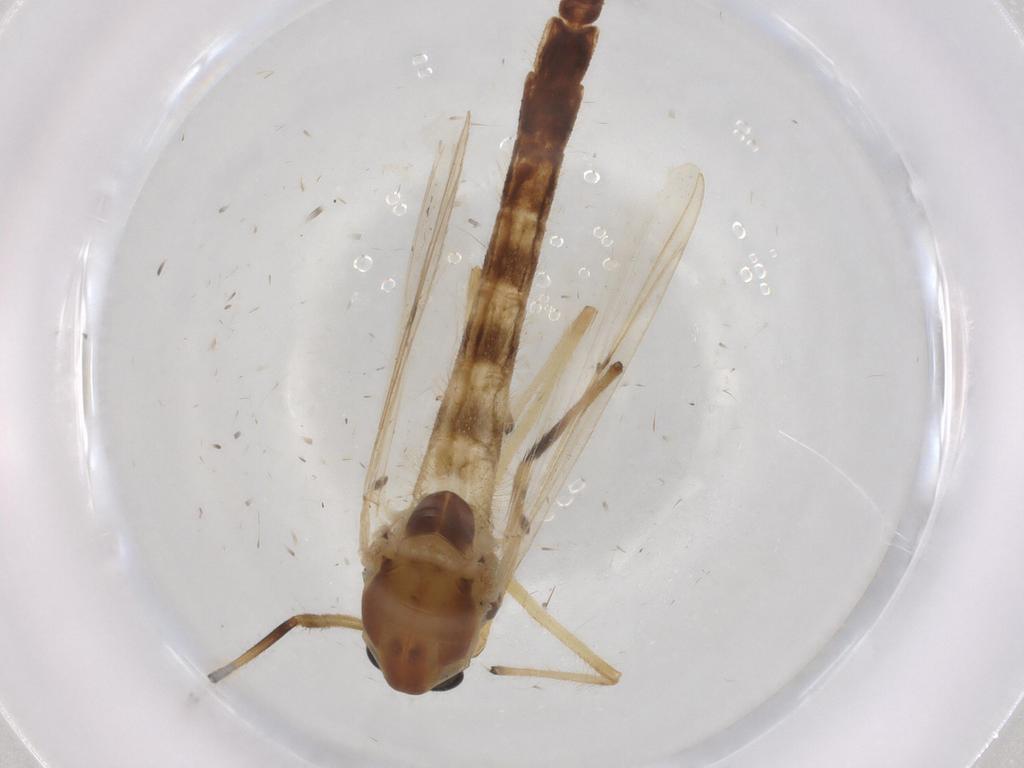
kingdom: Animalia
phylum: Arthropoda
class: Insecta
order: Diptera
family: Chironomidae
